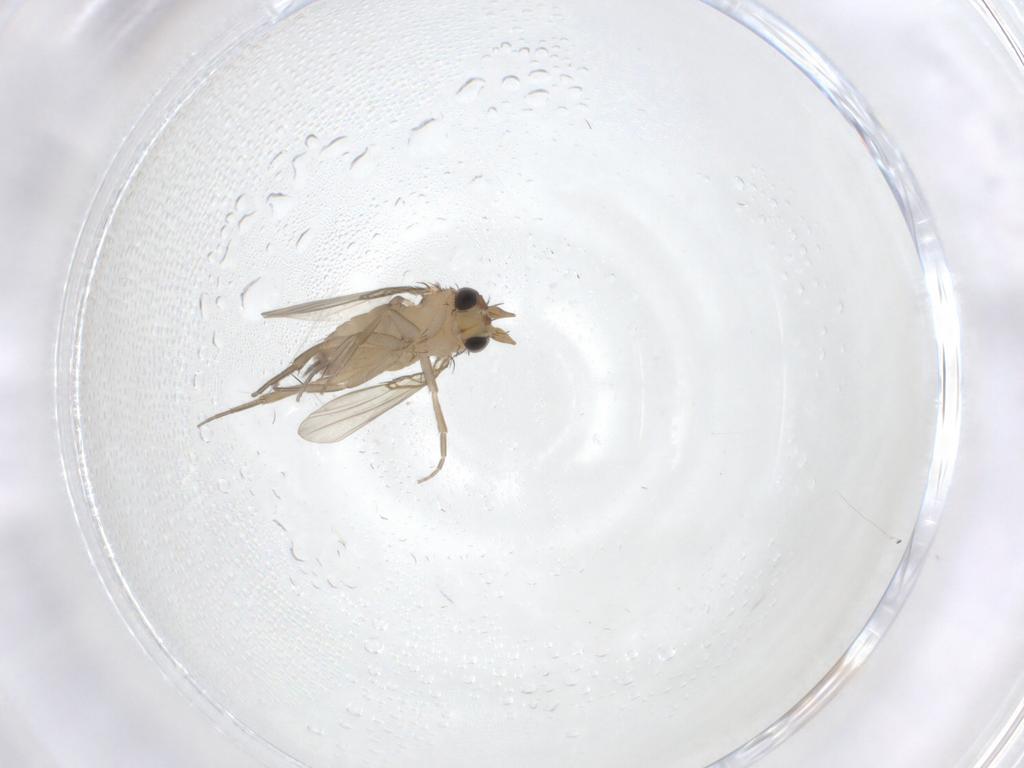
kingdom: Animalia
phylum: Arthropoda
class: Insecta
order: Diptera
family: Phoridae
